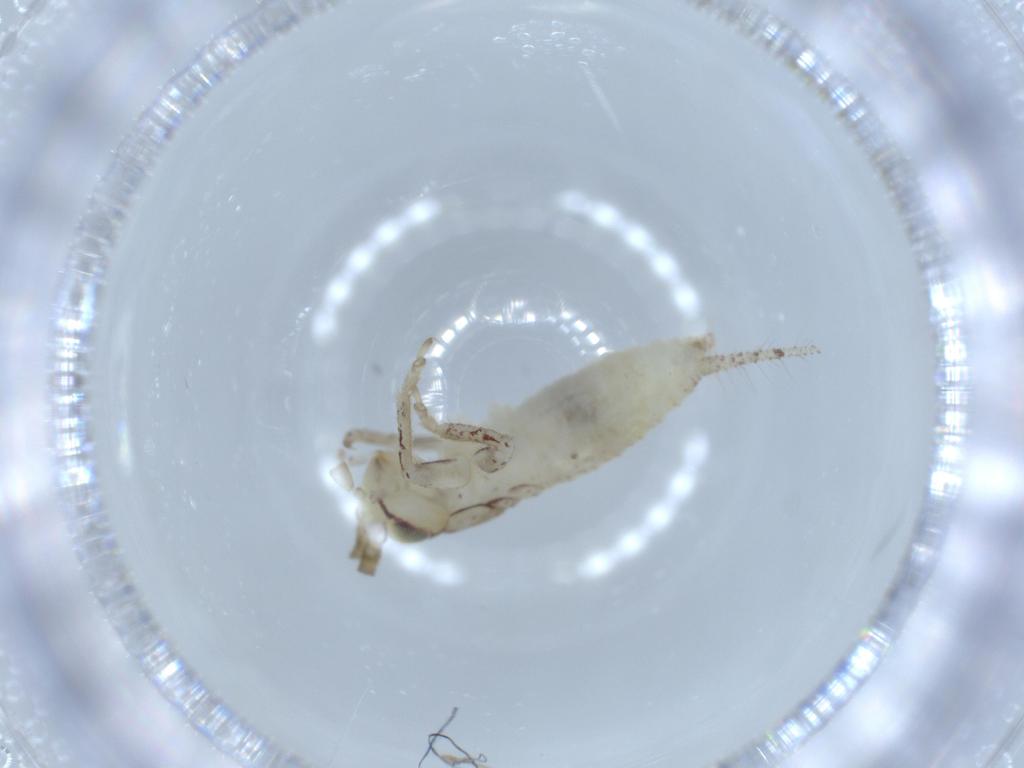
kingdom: Animalia
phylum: Arthropoda
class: Insecta
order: Orthoptera
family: Gryllidae
